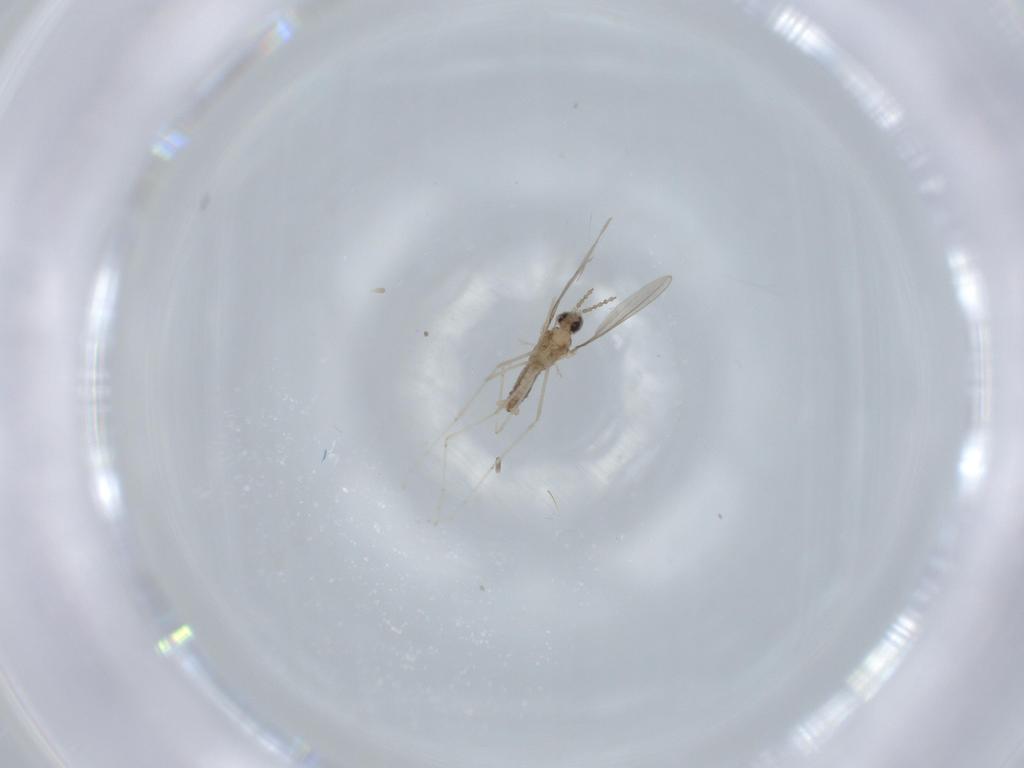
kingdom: Animalia
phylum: Arthropoda
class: Insecta
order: Diptera
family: Cecidomyiidae
